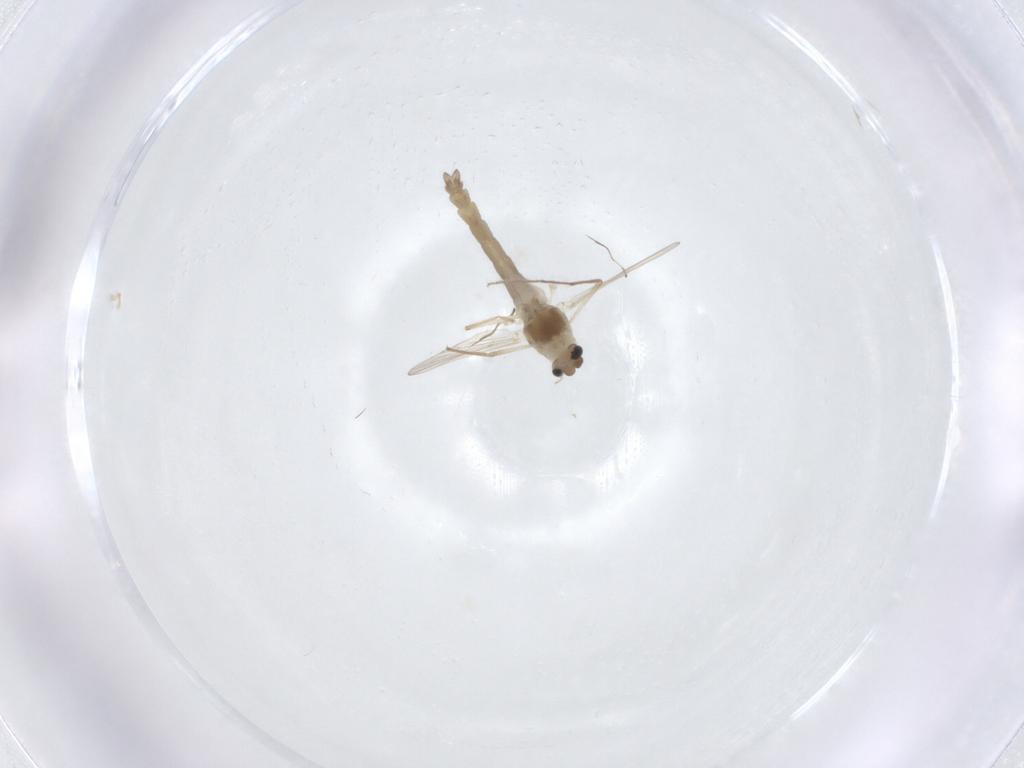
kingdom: Animalia
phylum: Arthropoda
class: Insecta
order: Diptera
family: Chironomidae
